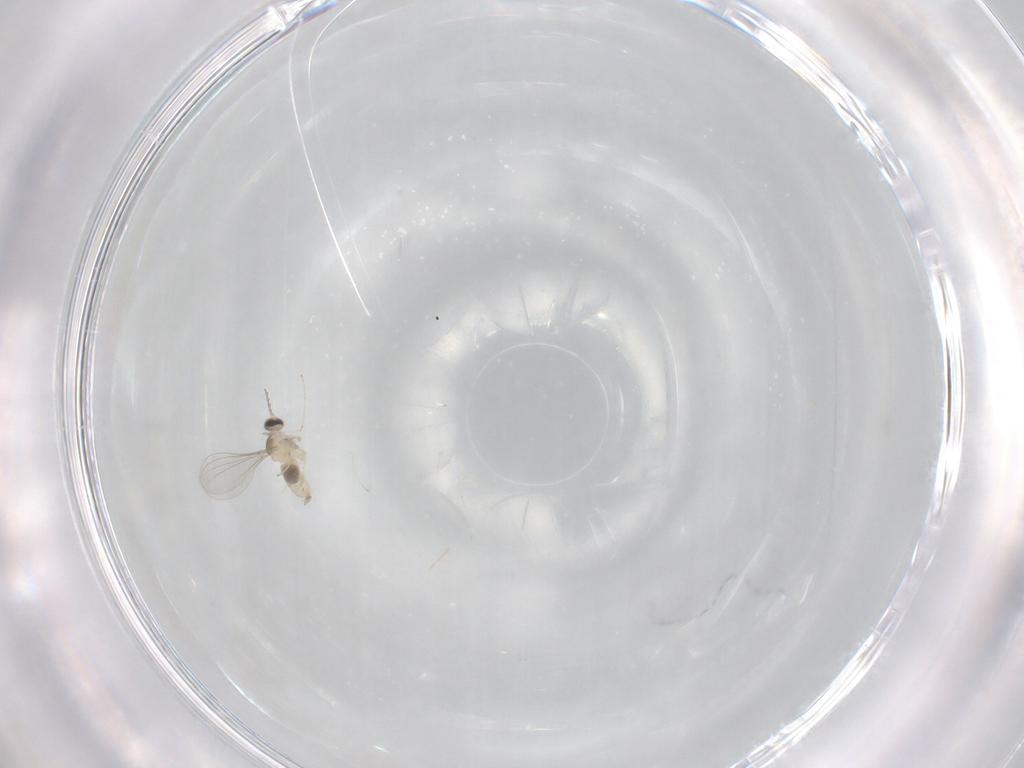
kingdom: Animalia
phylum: Arthropoda
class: Insecta
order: Diptera
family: Cecidomyiidae
